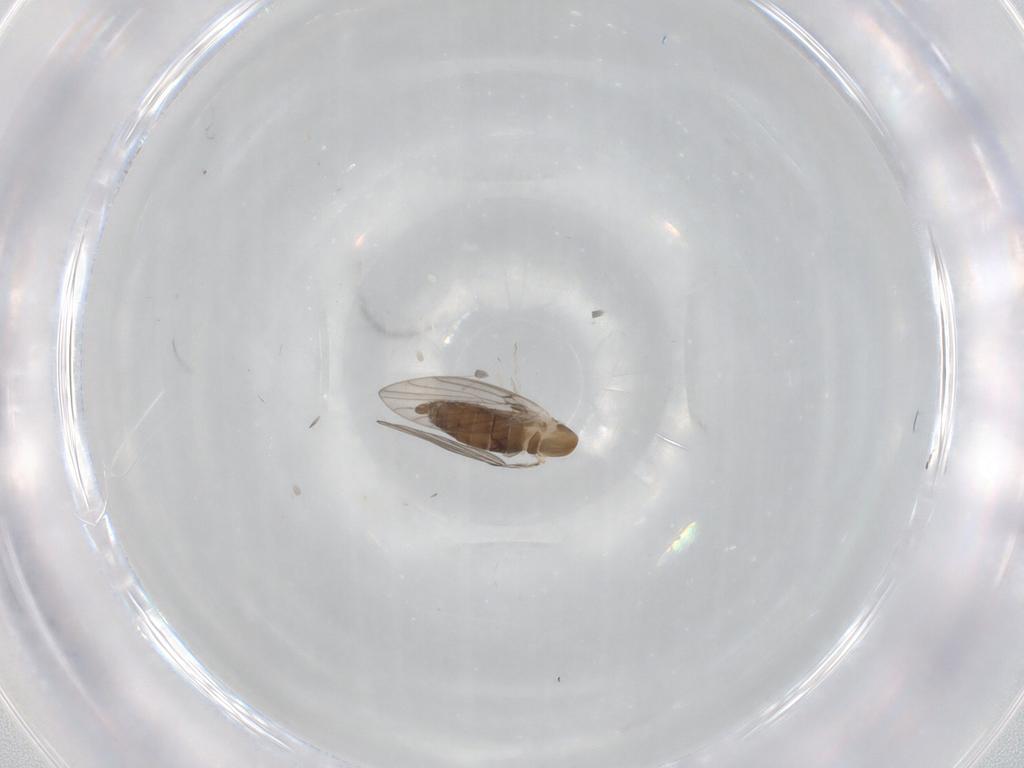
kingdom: Animalia
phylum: Arthropoda
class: Insecta
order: Diptera
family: Psychodidae
